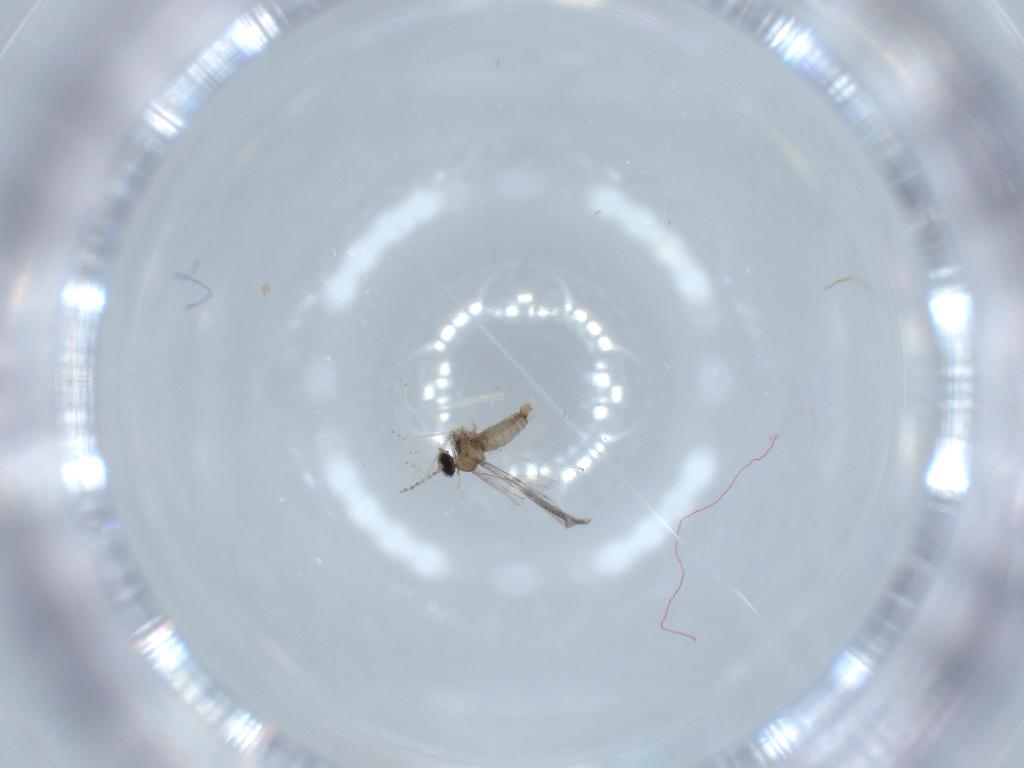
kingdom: Animalia
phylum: Arthropoda
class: Insecta
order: Diptera
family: Cecidomyiidae
